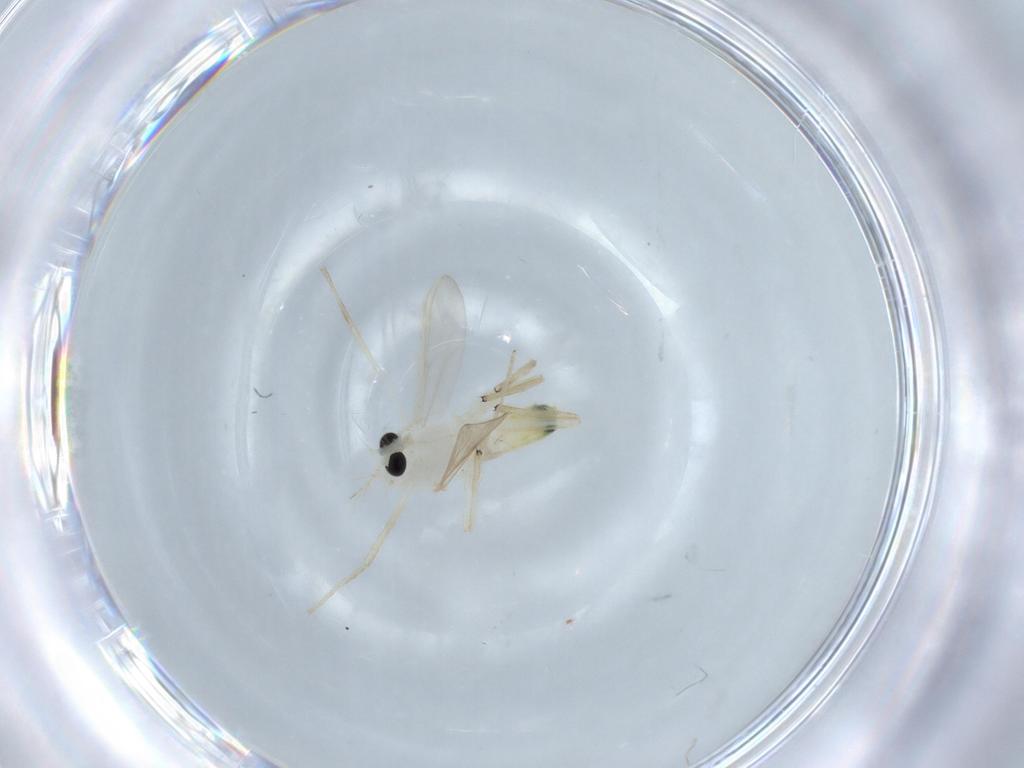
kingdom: Animalia
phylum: Arthropoda
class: Insecta
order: Diptera
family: Chironomidae
